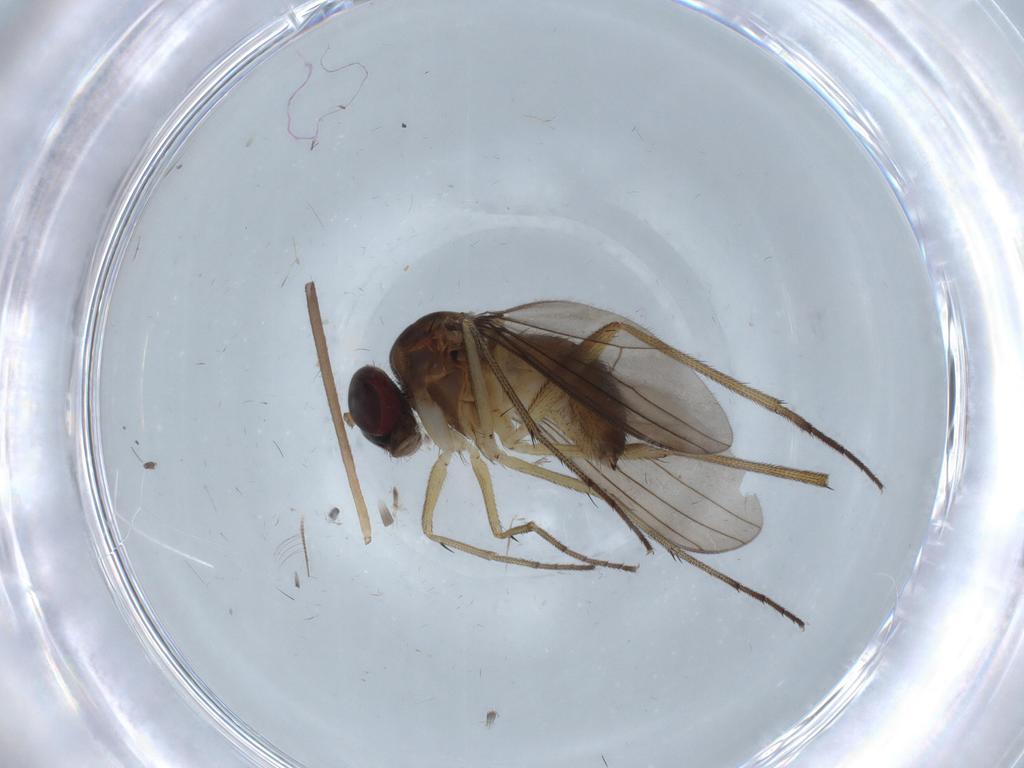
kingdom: Animalia
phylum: Arthropoda
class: Insecta
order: Diptera
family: Dolichopodidae
